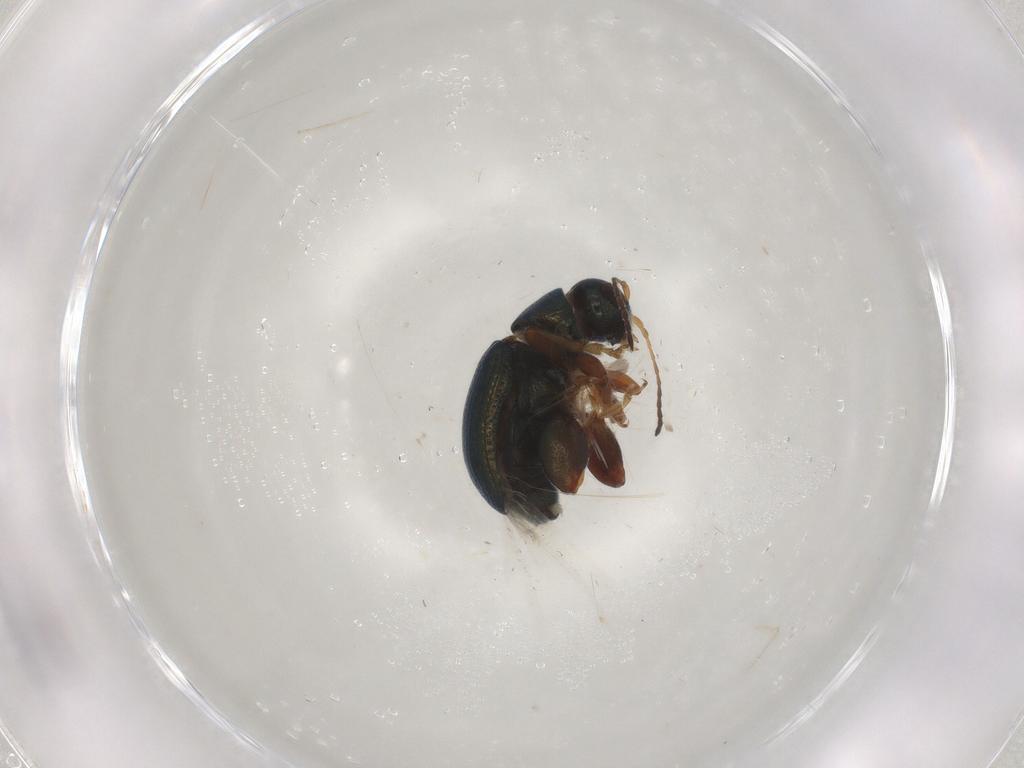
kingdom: Animalia
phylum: Arthropoda
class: Insecta
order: Coleoptera
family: Chrysomelidae
